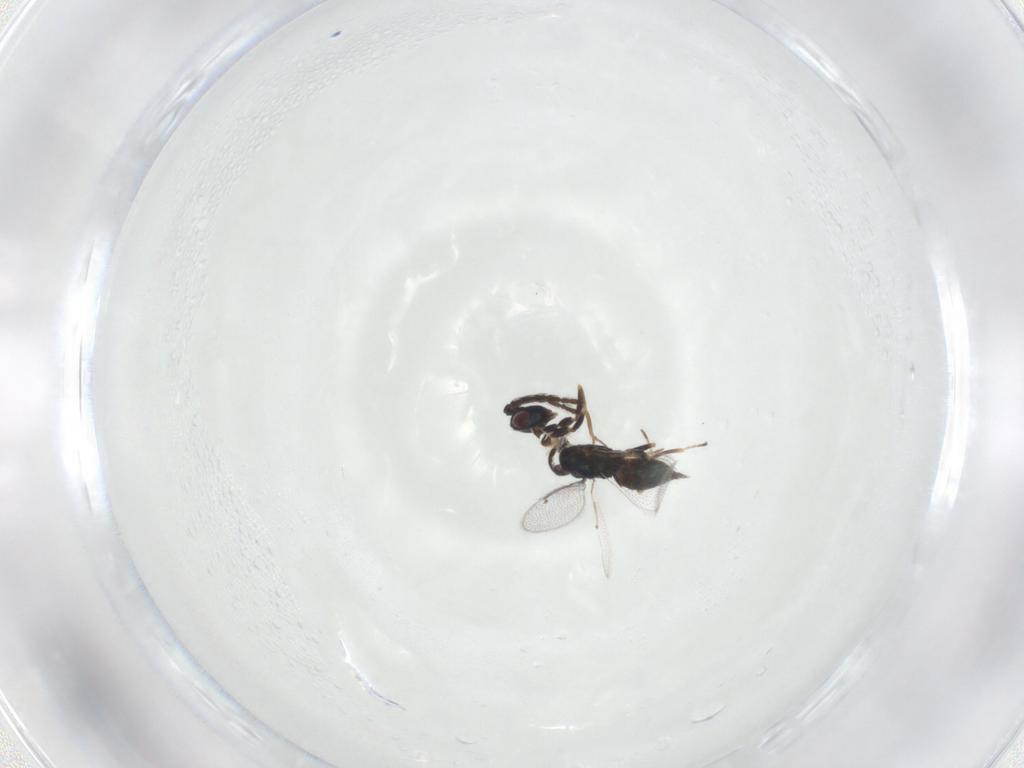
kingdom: Animalia
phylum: Arthropoda
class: Insecta
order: Hymenoptera
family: Eulophidae
